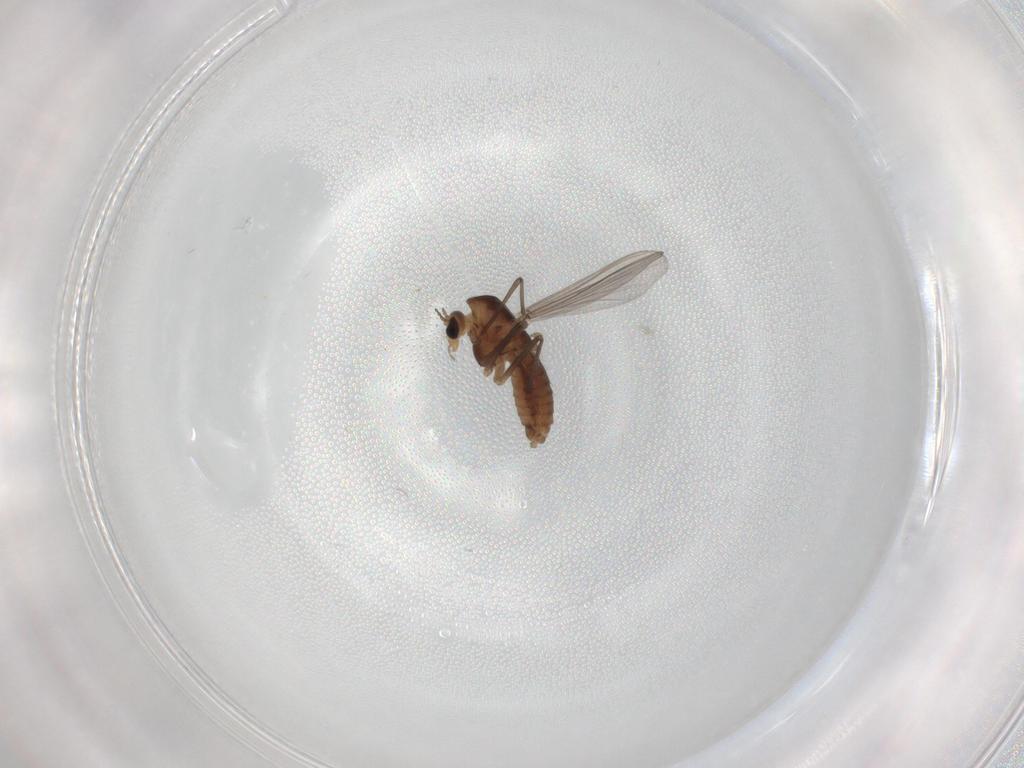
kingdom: Animalia
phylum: Arthropoda
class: Insecta
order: Diptera
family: Chironomidae
